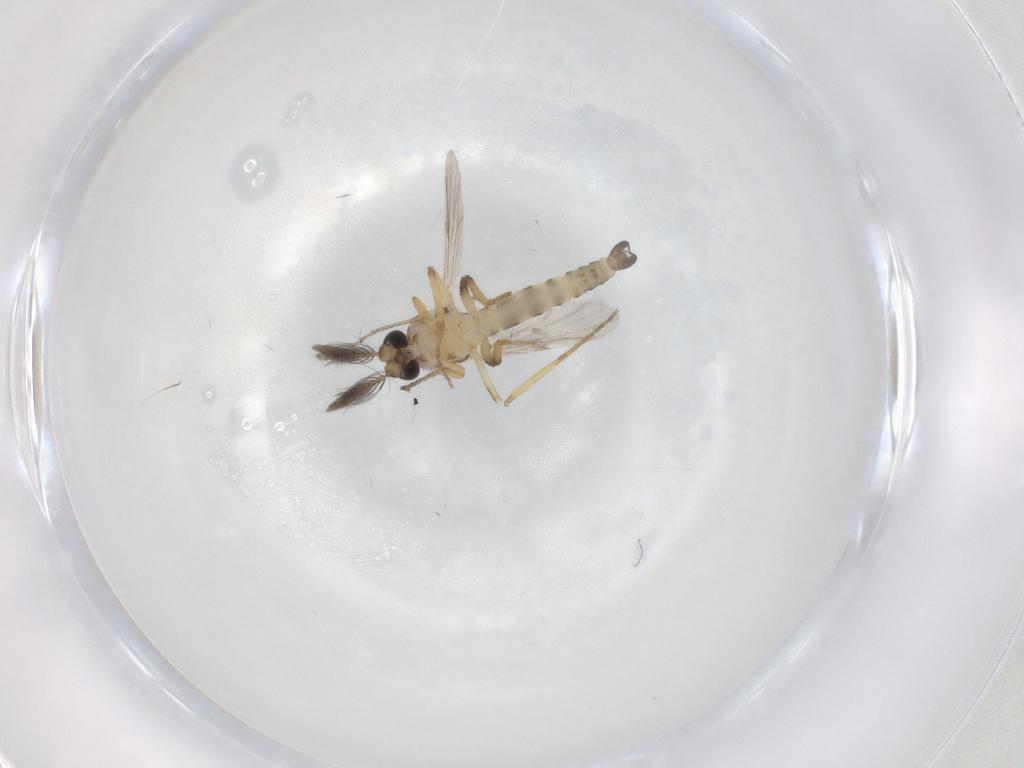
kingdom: Animalia
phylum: Arthropoda
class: Insecta
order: Diptera
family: Ceratopogonidae
